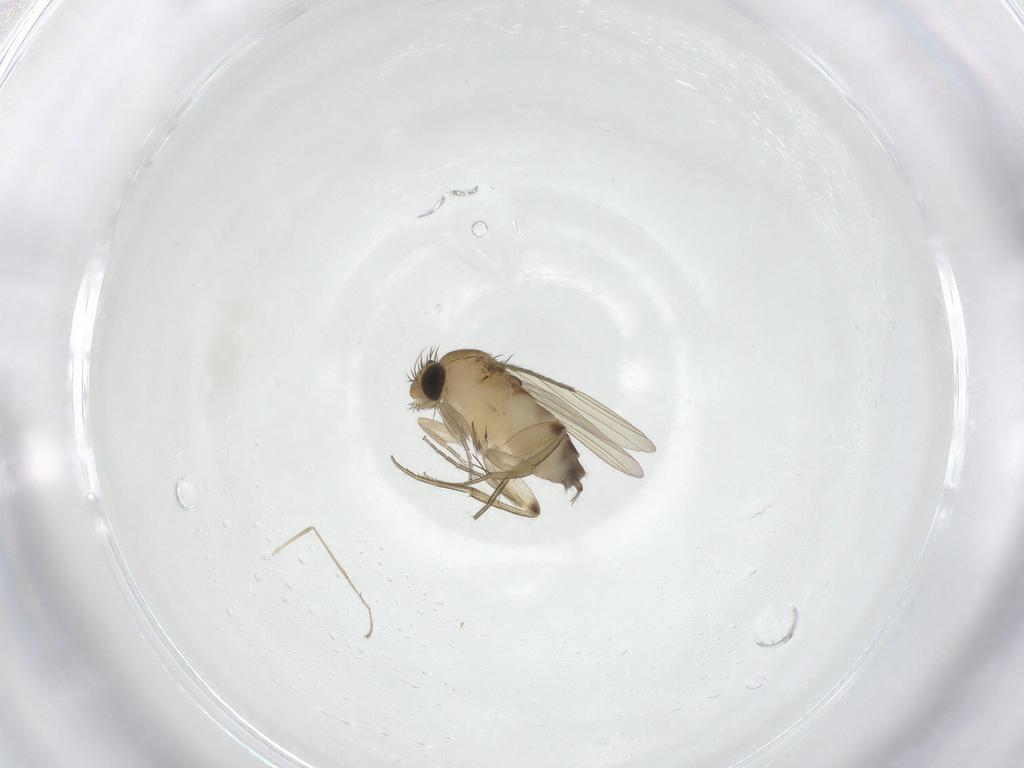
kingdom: Animalia
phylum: Arthropoda
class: Insecta
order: Diptera
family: Phoridae
